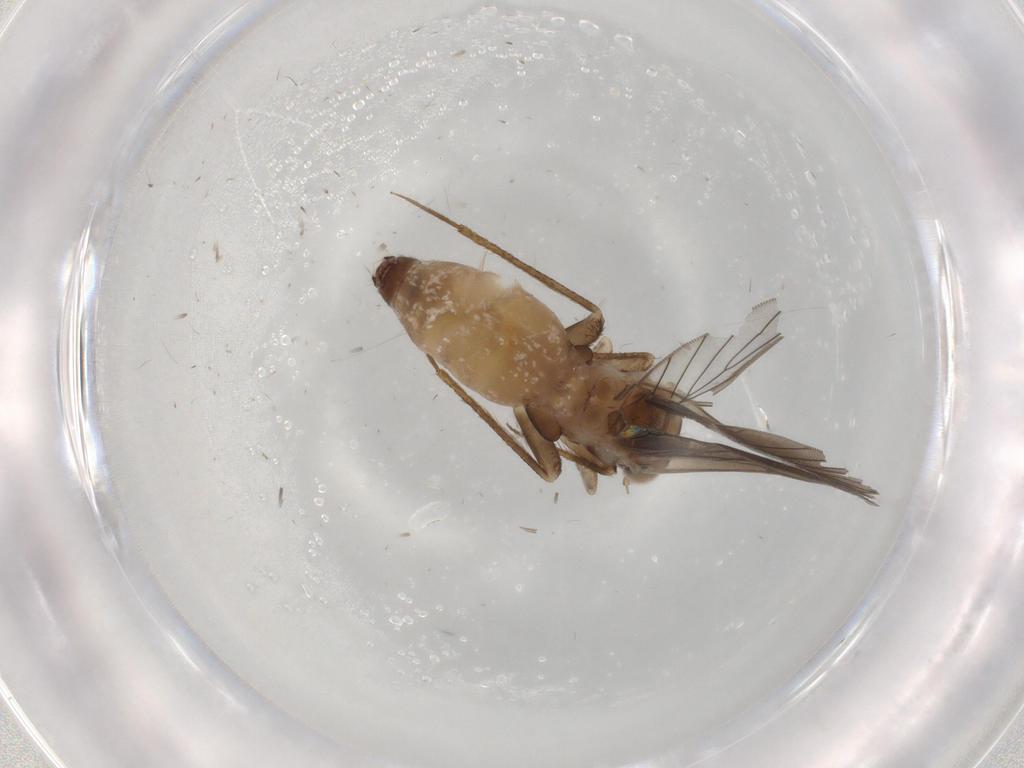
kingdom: Animalia
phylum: Arthropoda
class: Insecta
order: Psocodea
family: Lepidopsocidae
